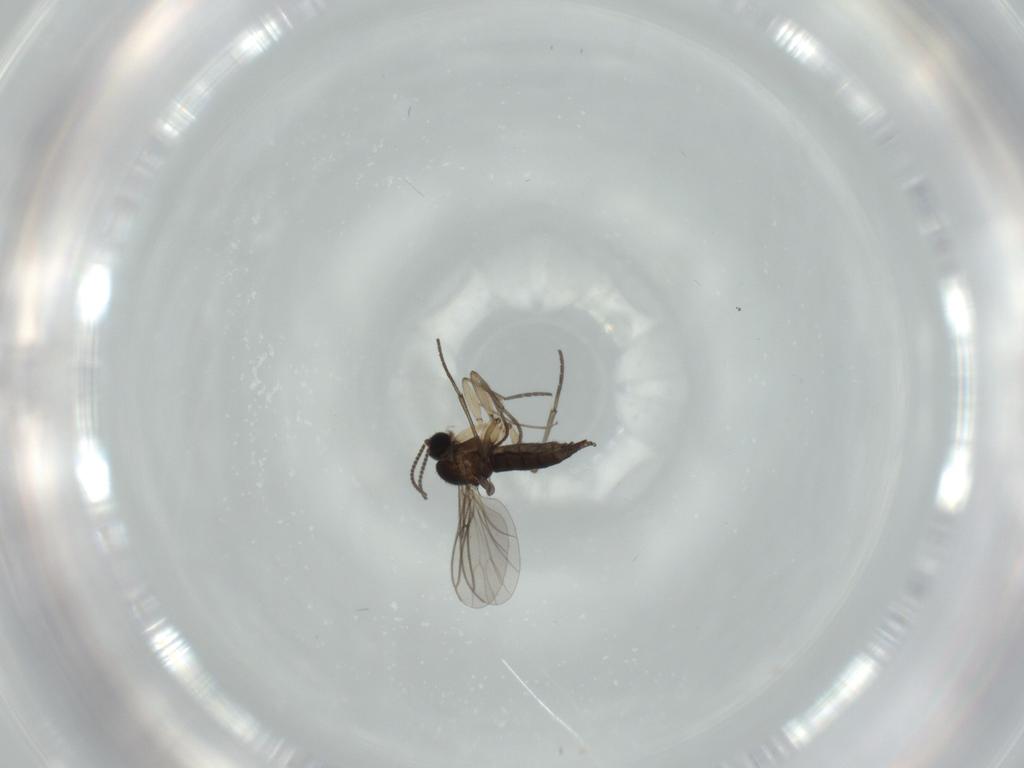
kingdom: Animalia
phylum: Arthropoda
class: Insecta
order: Diptera
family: Sciaridae
